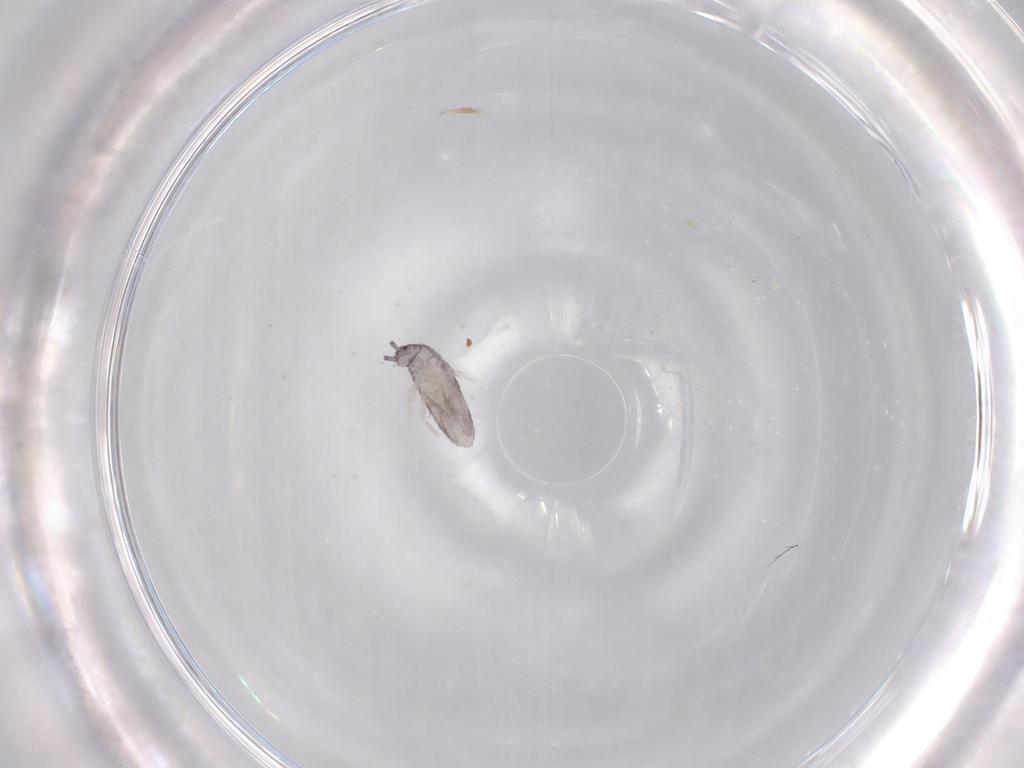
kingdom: Animalia
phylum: Arthropoda
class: Collembola
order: Entomobryomorpha
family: Entomobryidae
